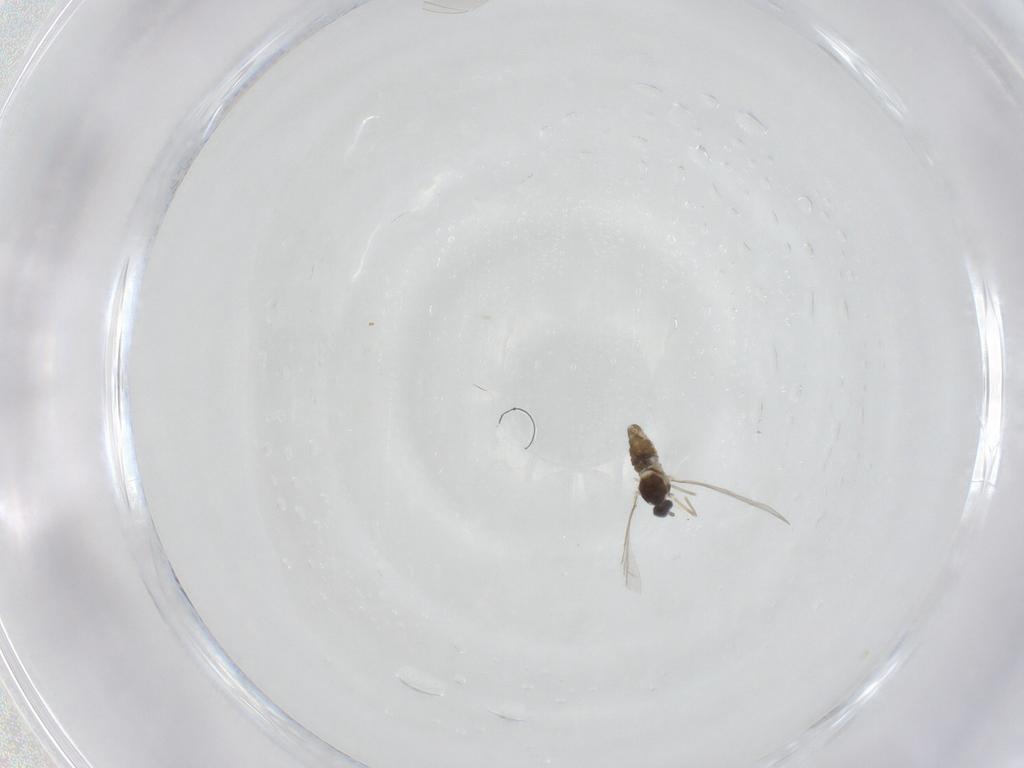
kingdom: Animalia
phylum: Arthropoda
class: Insecta
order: Diptera
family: Cecidomyiidae
